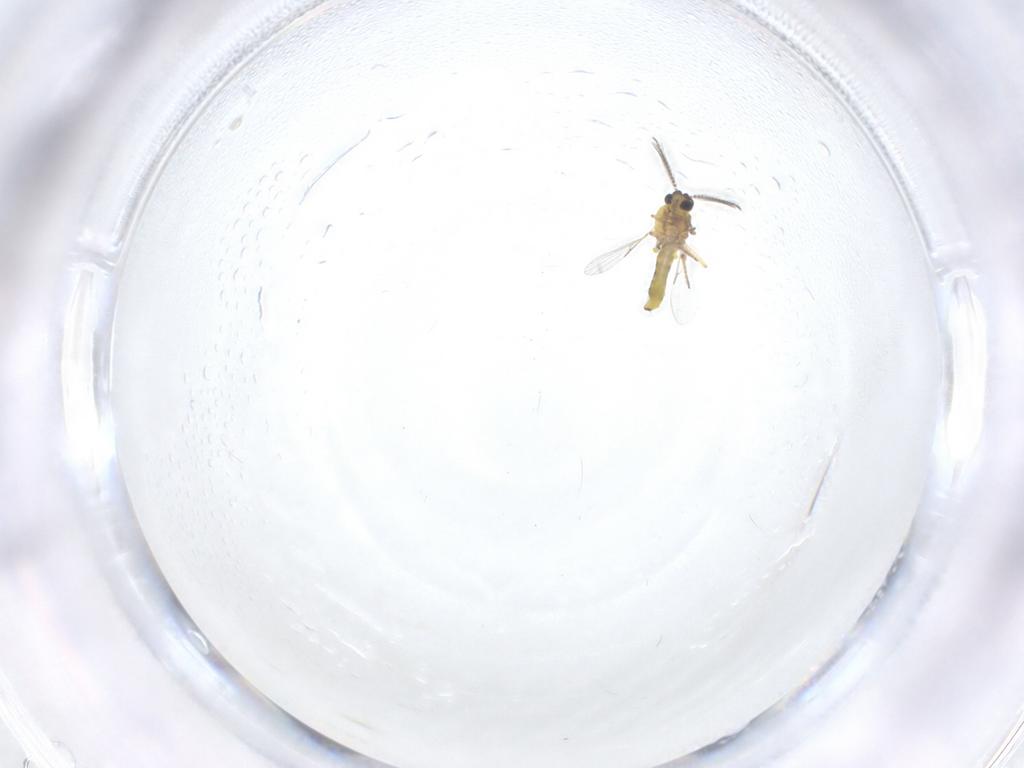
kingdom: Animalia
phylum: Arthropoda
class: Insecta
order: Diptera
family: Ceratopogonidae
